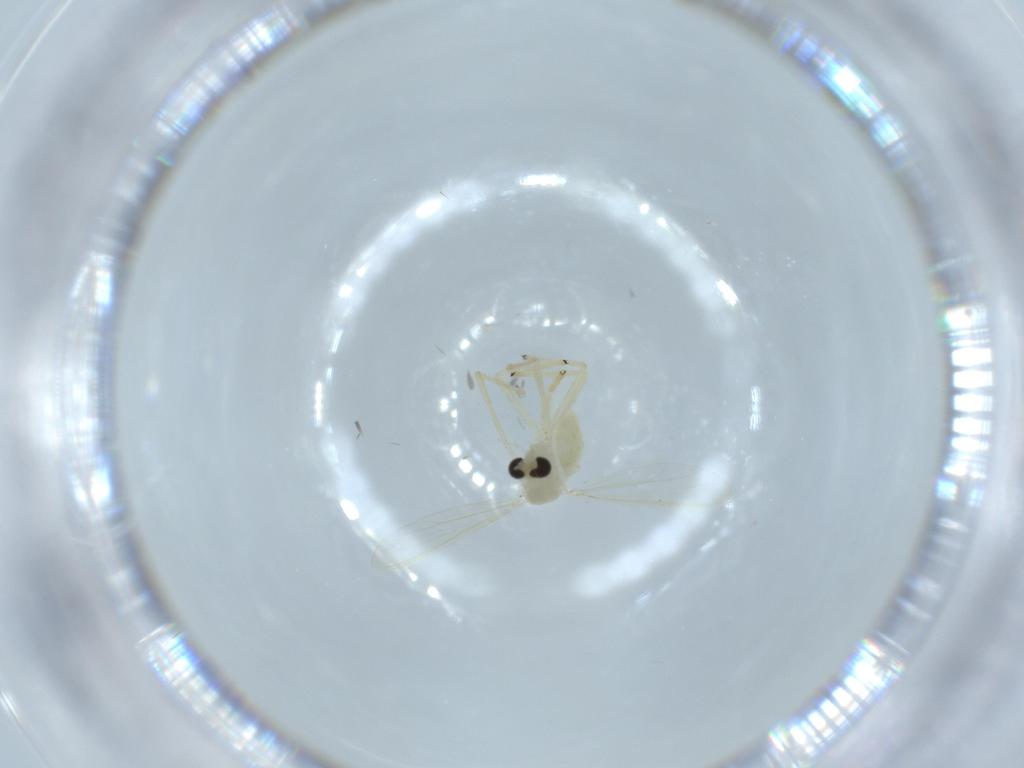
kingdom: Animalia
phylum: Arthropoda
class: Insecta
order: Diptera
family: Chironomidae
